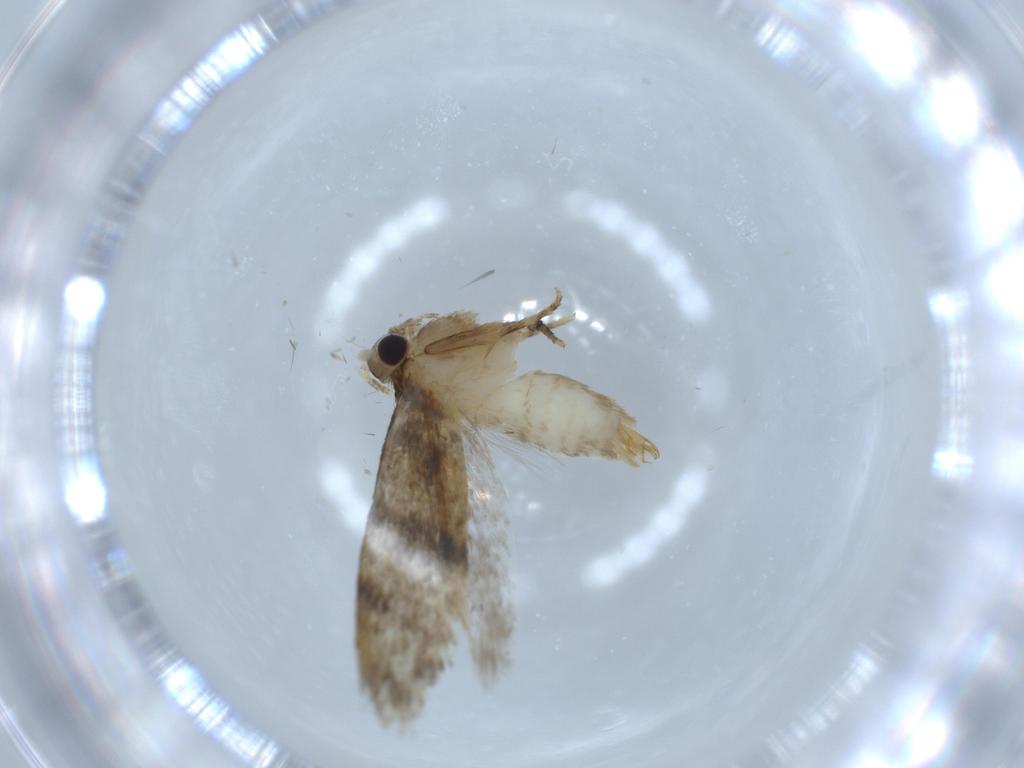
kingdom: Animalia
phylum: Arthropoda
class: Insecta
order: Lepidoptera
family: Tineidae
